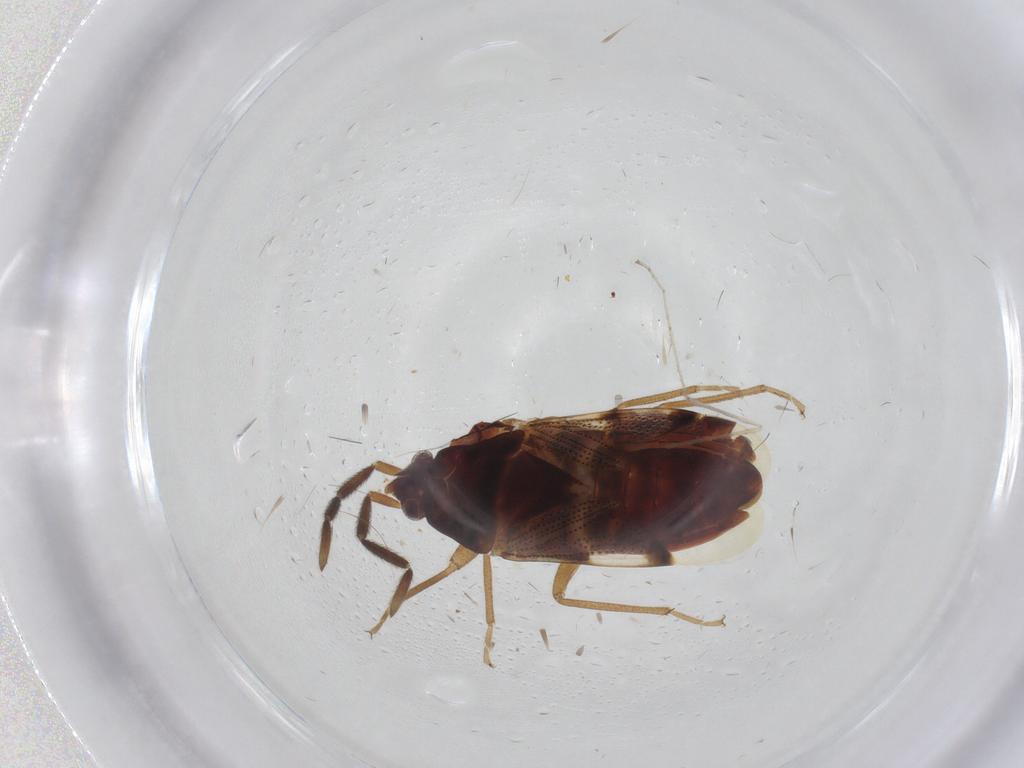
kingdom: Animalia
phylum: Arthropoda
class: Insecta
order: Hemiptera
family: Rhyparochromidae
